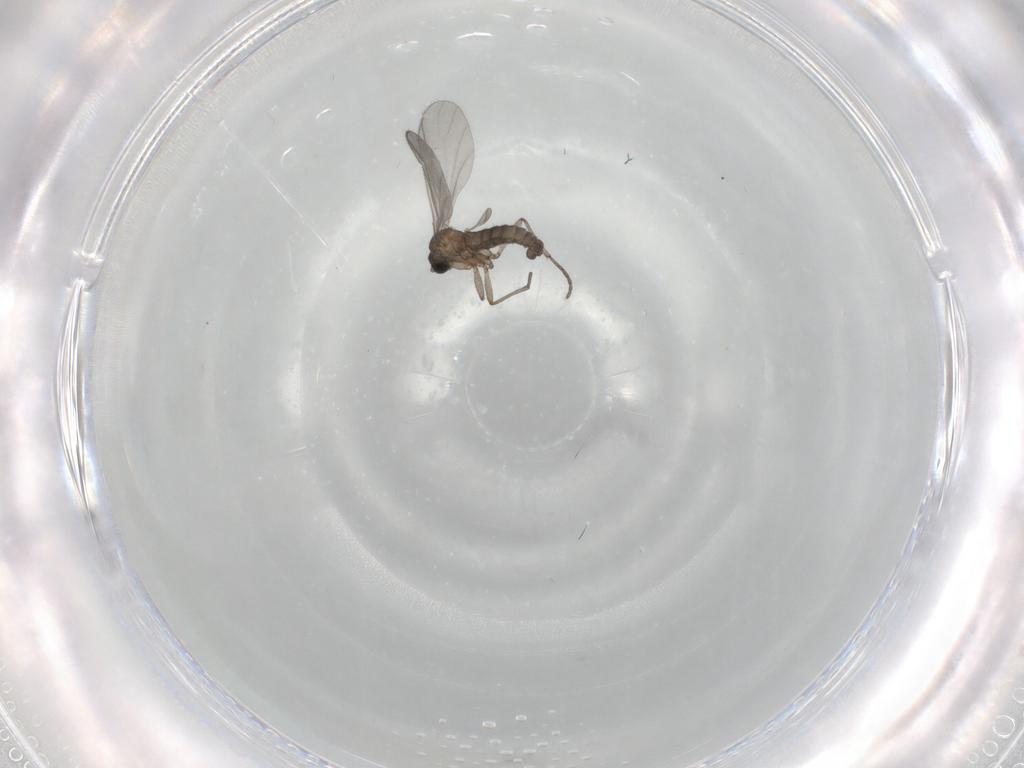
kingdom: Animalia
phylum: Arthropoda
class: Insecta
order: Diptera
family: Sciaridae
